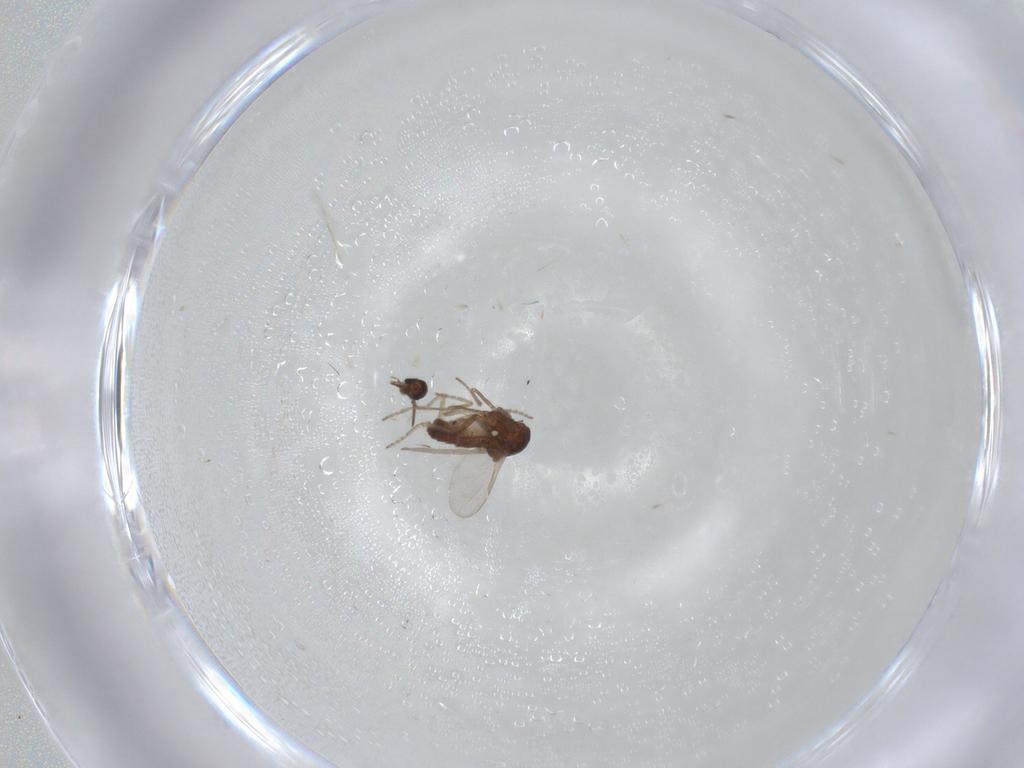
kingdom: Animalia
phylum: Arthropoda
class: Insecta
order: Diptera
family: Ceratopogonidae
